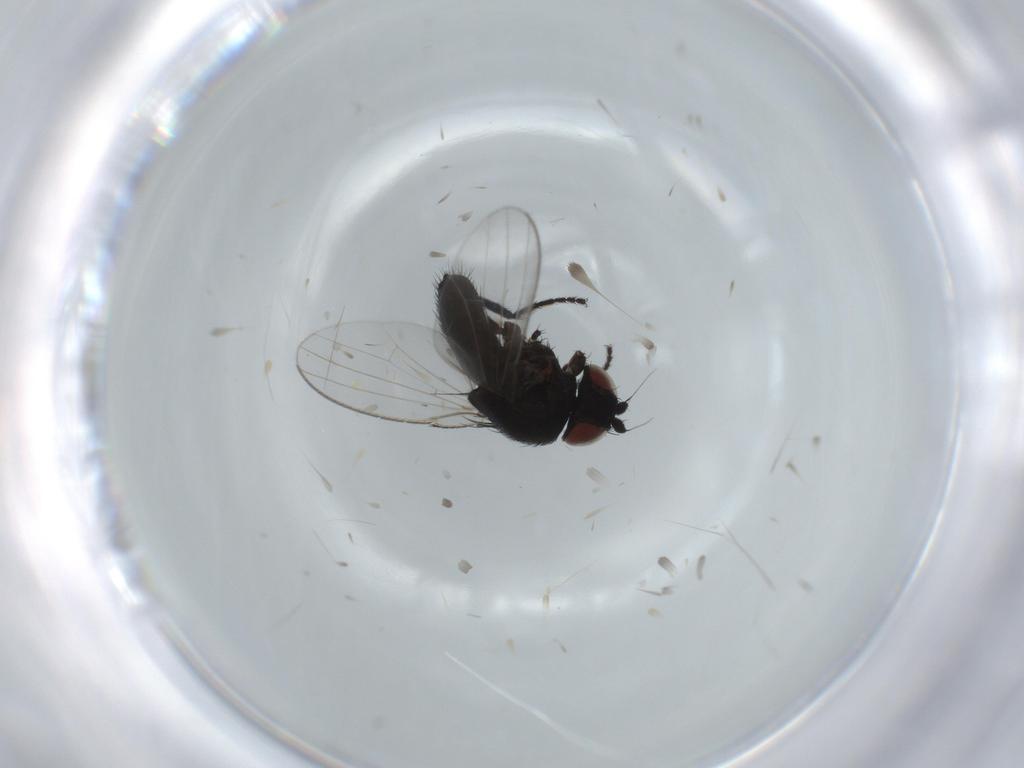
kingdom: Animalia
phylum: Arthropoda
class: Insecta
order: Diptera
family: Milichiidae
